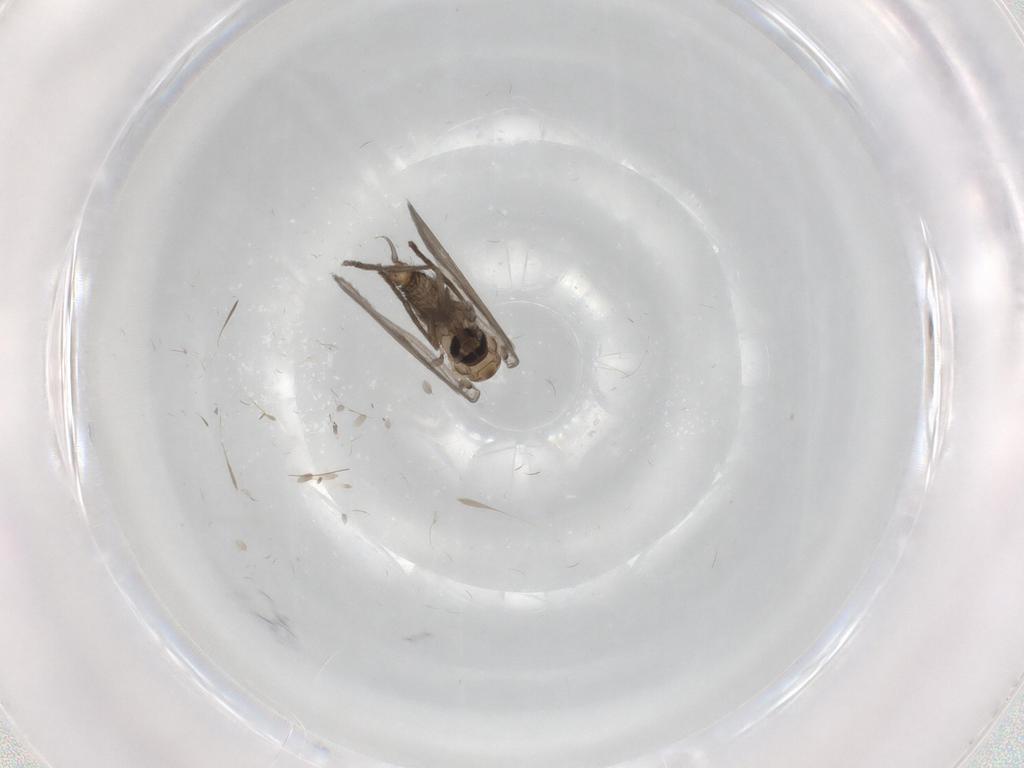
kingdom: Animalia
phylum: Arthropoda
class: Insecta
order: Diptera
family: Psychodidae
